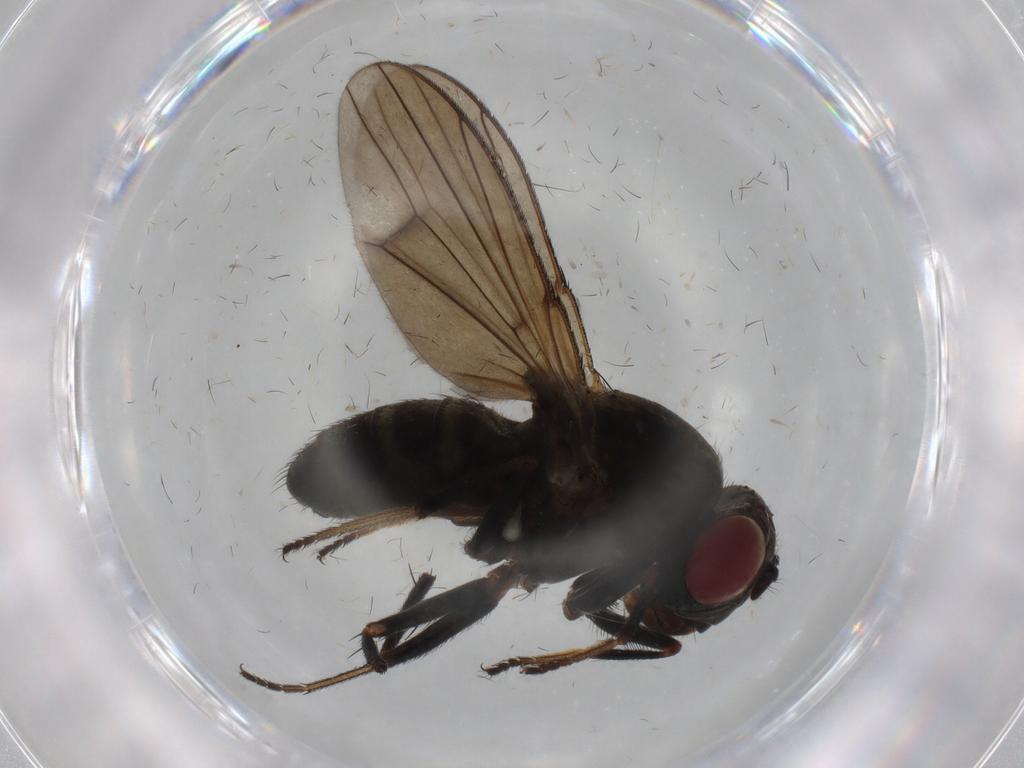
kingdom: Animalia
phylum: Arthropoda
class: Insecta
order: Diptera
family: Ephydridae
